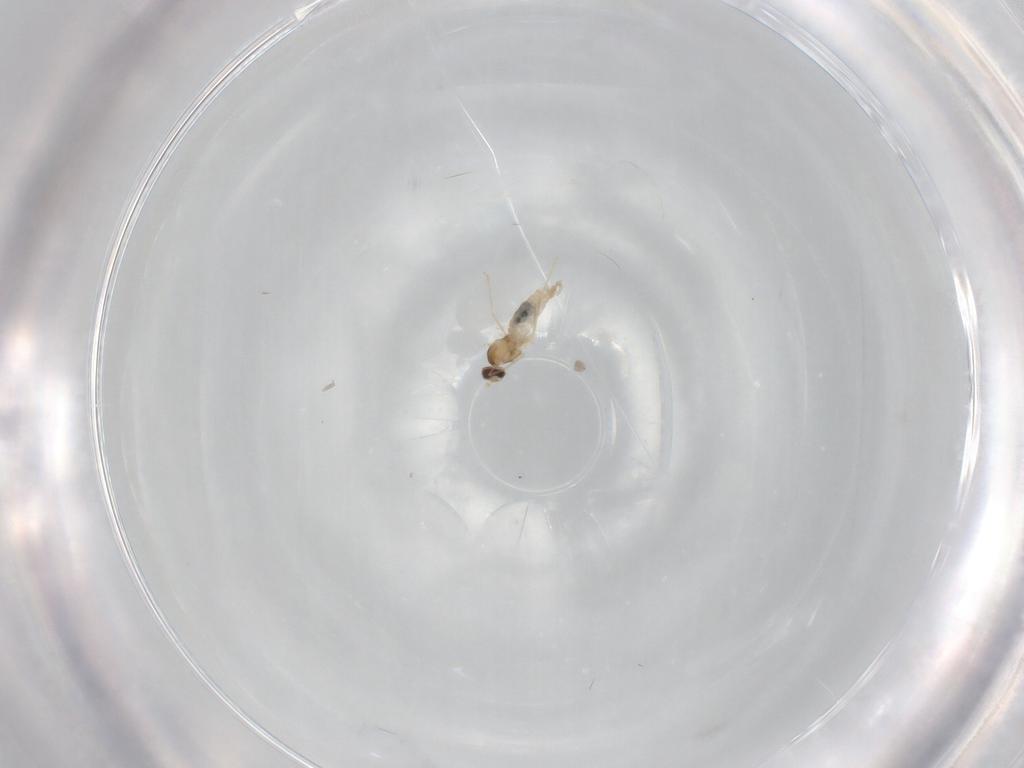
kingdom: Animalia
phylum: Arthropoda
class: Insecta
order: Diptera
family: Cecidomyiidae
